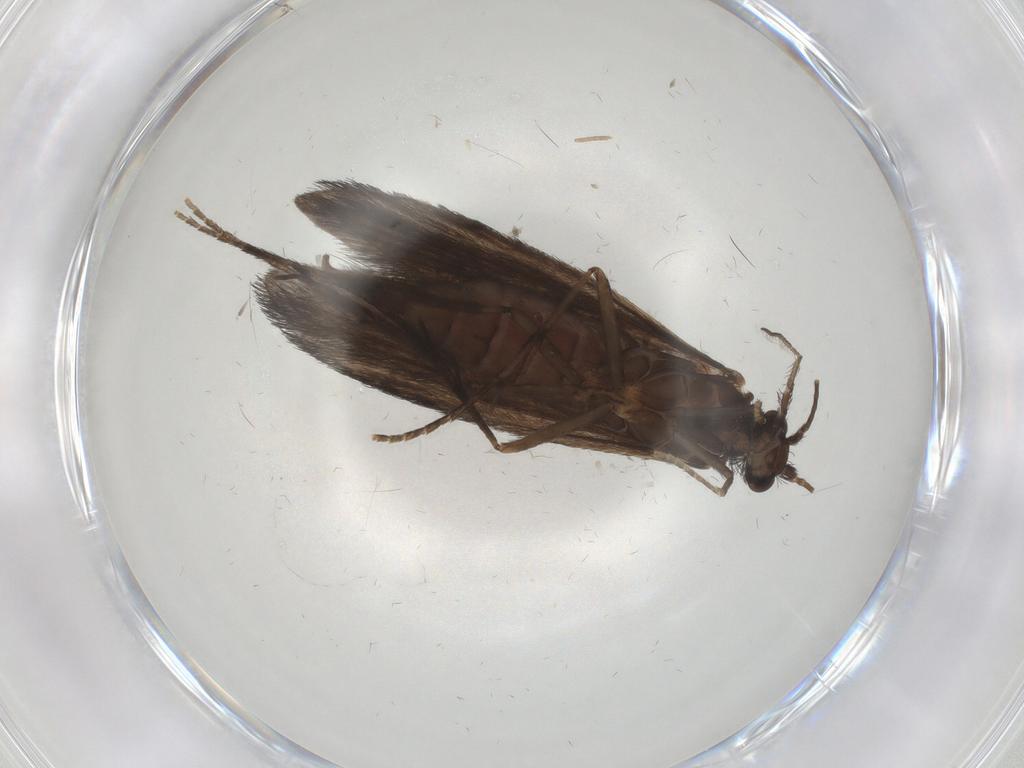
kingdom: Animalia
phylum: Arthropoda
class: Insecta
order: Trichoptera
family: Xiphocentronidae
